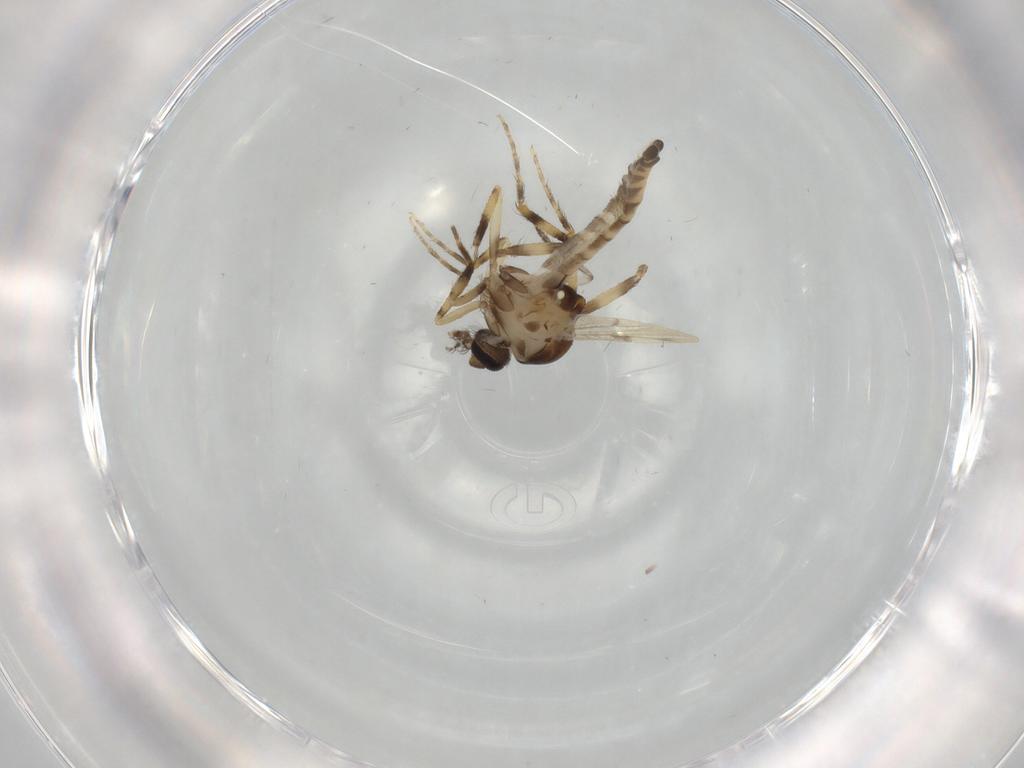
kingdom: Animalia
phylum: Arthropoda
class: Insecta
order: Diptera
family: Ceratopogonidae
